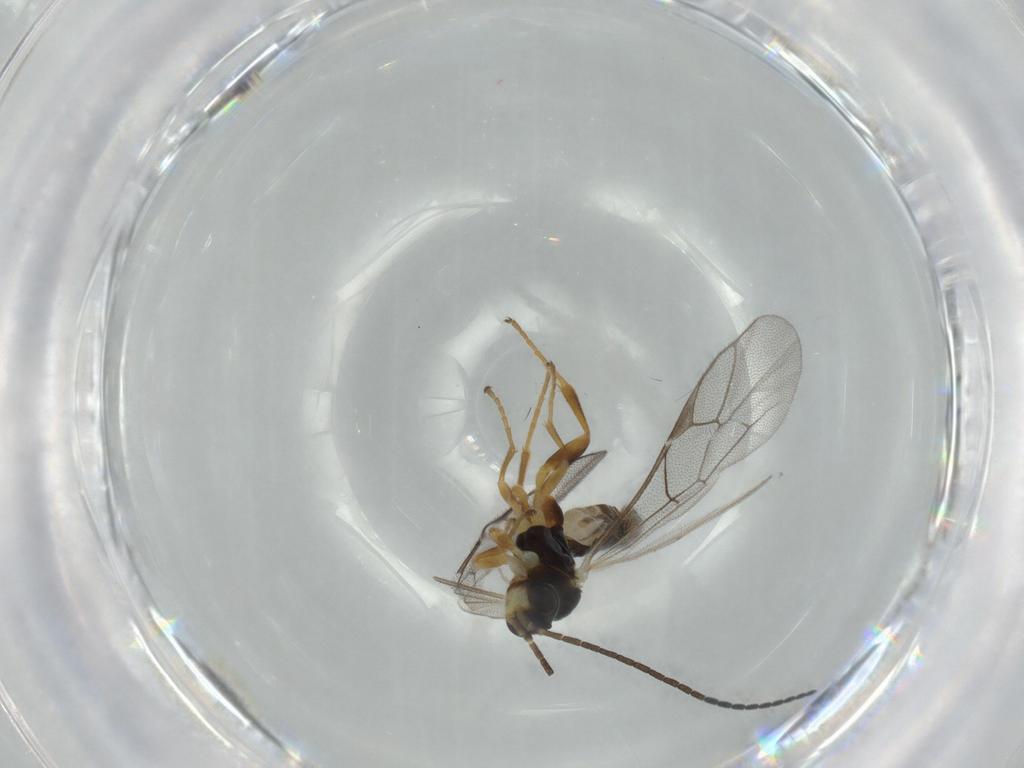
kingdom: Animalia
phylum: Arthropoda
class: Insecta
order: Hymenoptera
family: Ichneumonidae
